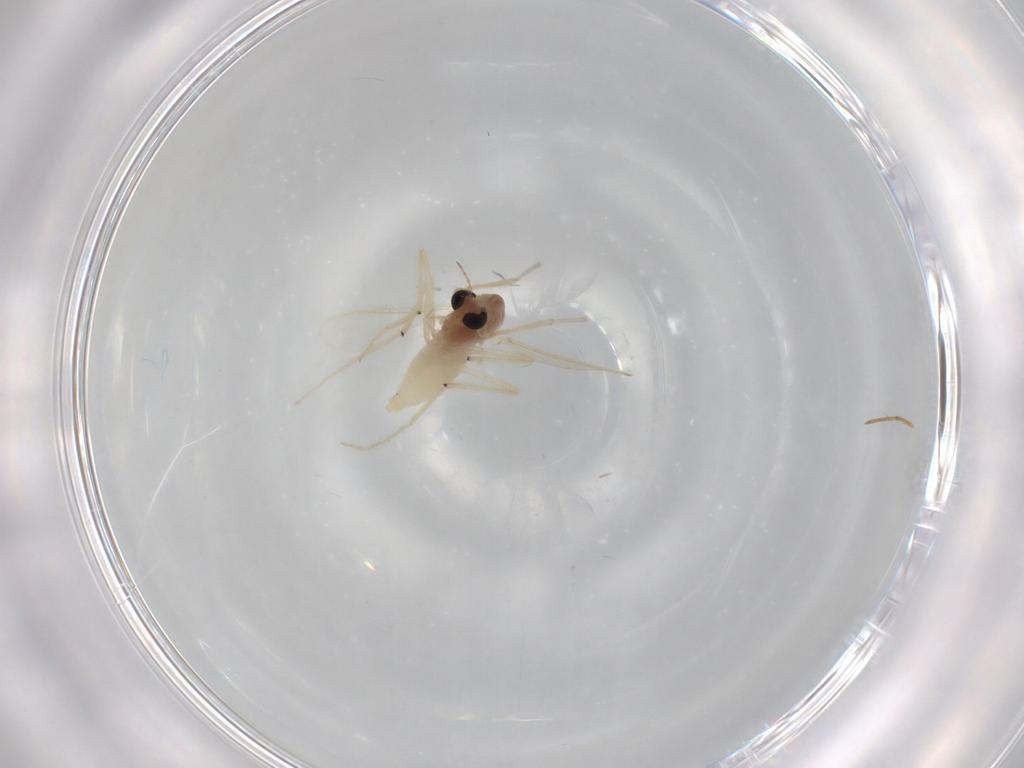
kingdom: Animalia
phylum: Arthropoda
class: Insecta
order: Diptera
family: Chironomidae
